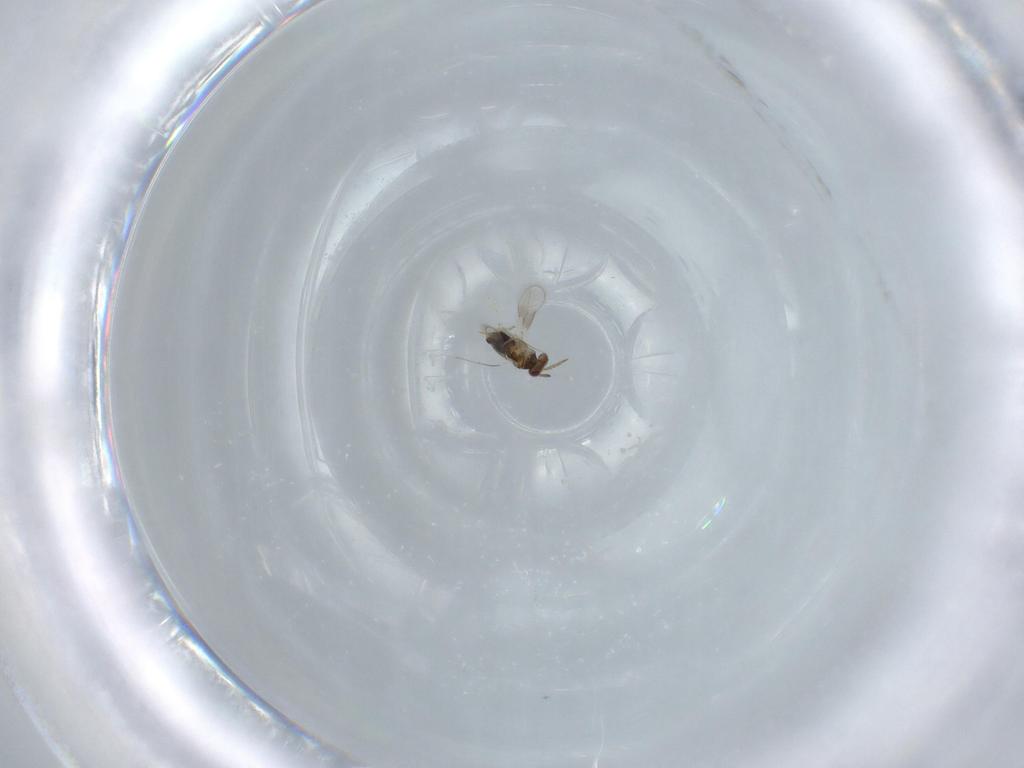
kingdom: Animalia
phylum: Arthropoda
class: Insecta
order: Hymenoptera
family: Aphelinidae
